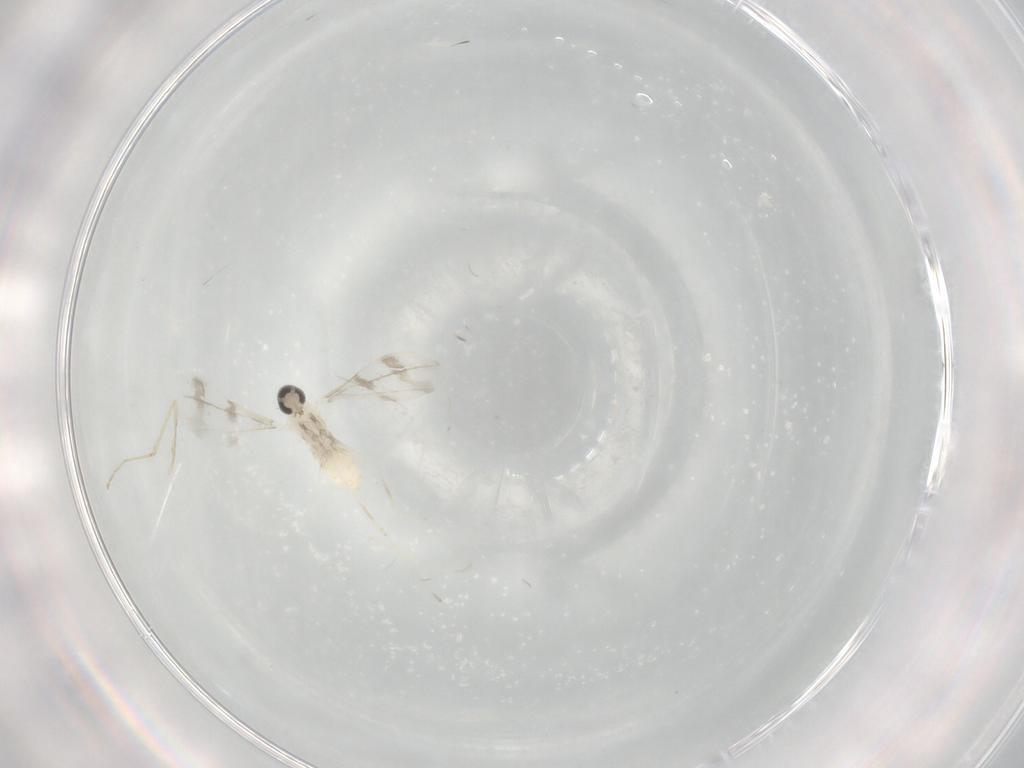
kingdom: Animalia
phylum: Arthropoda
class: Insecta
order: Diptera
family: Cecidomyiidae
